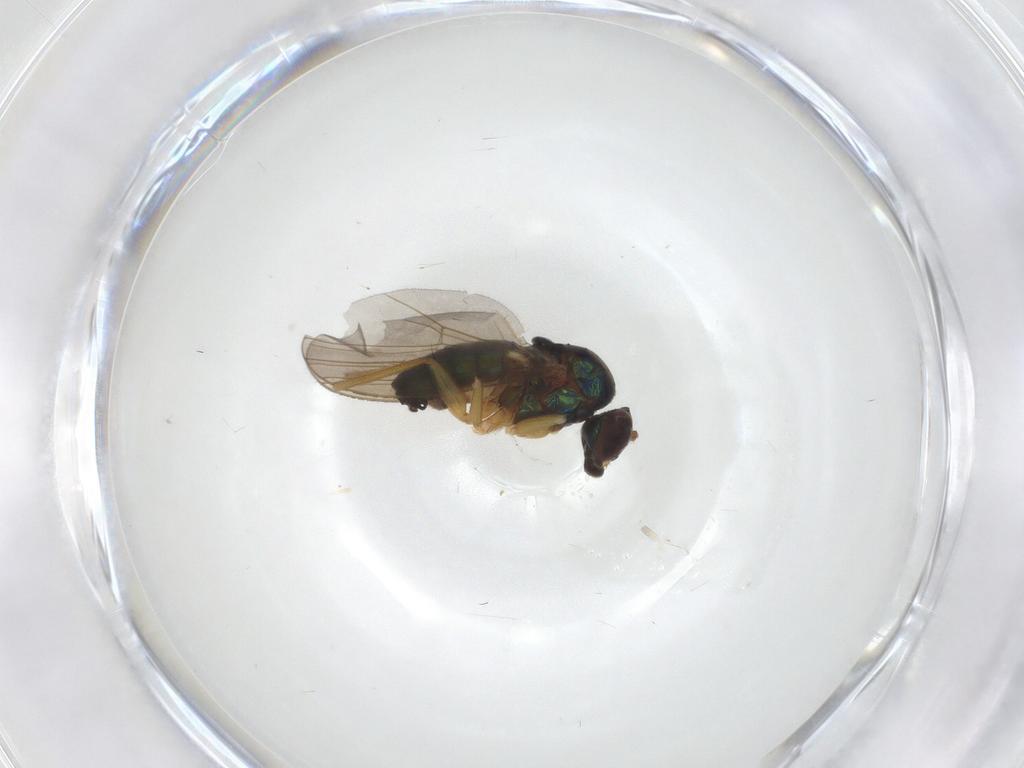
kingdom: Animalia
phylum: Arthropoda
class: Insecta
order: Diptera
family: Dolichopodidae
